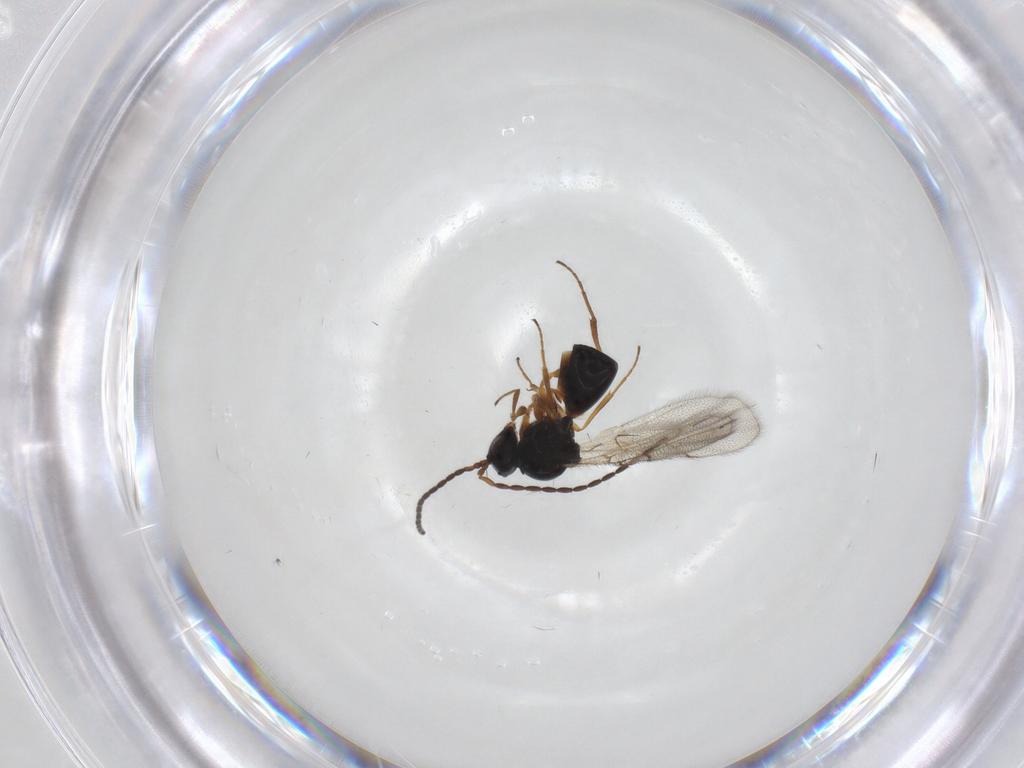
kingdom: Animalia
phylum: Arthropoda
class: Insecta
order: Hymenoptera
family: Figitidae
